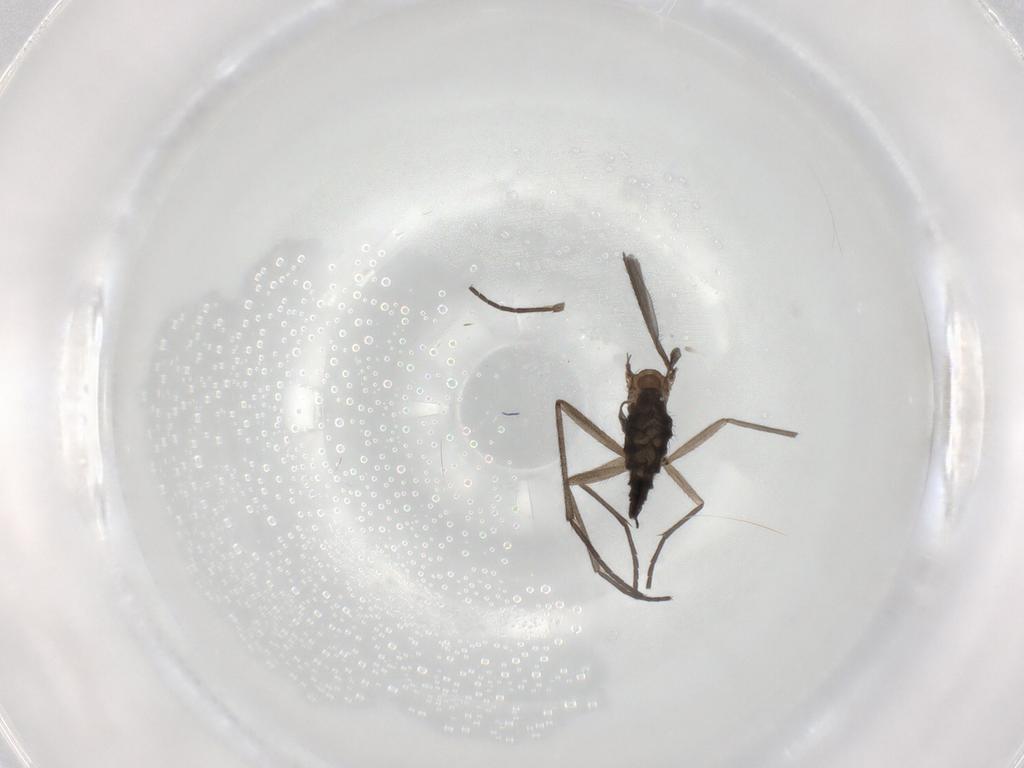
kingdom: Animalia
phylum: Arthropoda
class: Insecta
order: Diptera
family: Sciaridae
